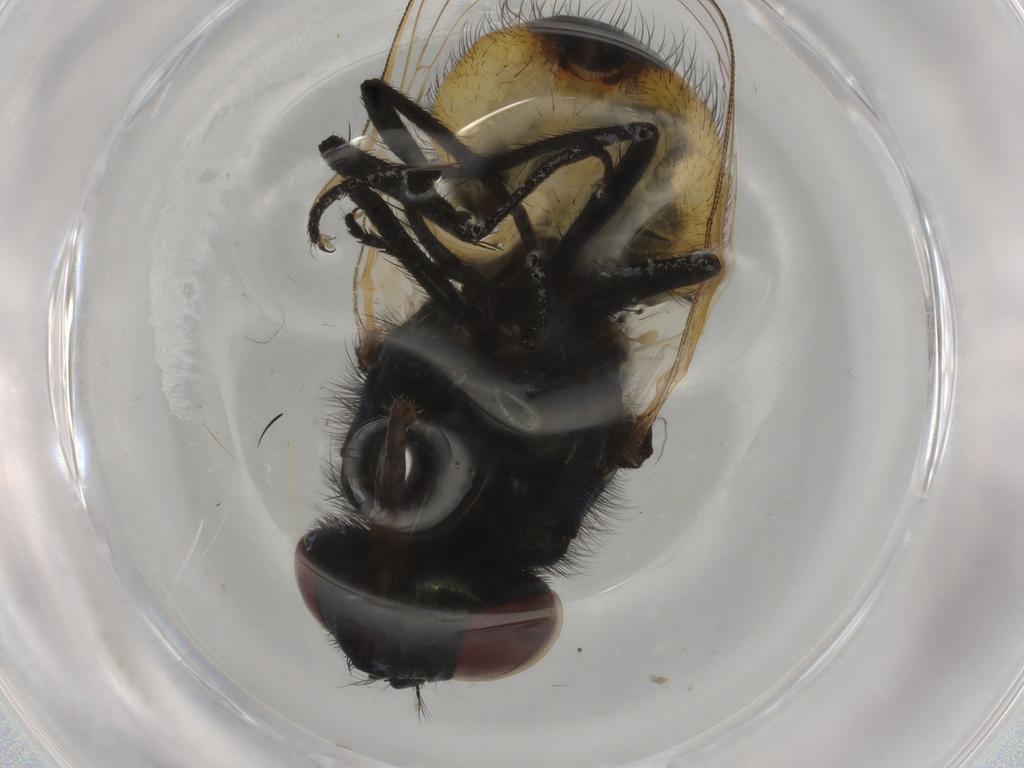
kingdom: Animalia
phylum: Arthropoda
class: Insecta
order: Diptera
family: Muscidae
